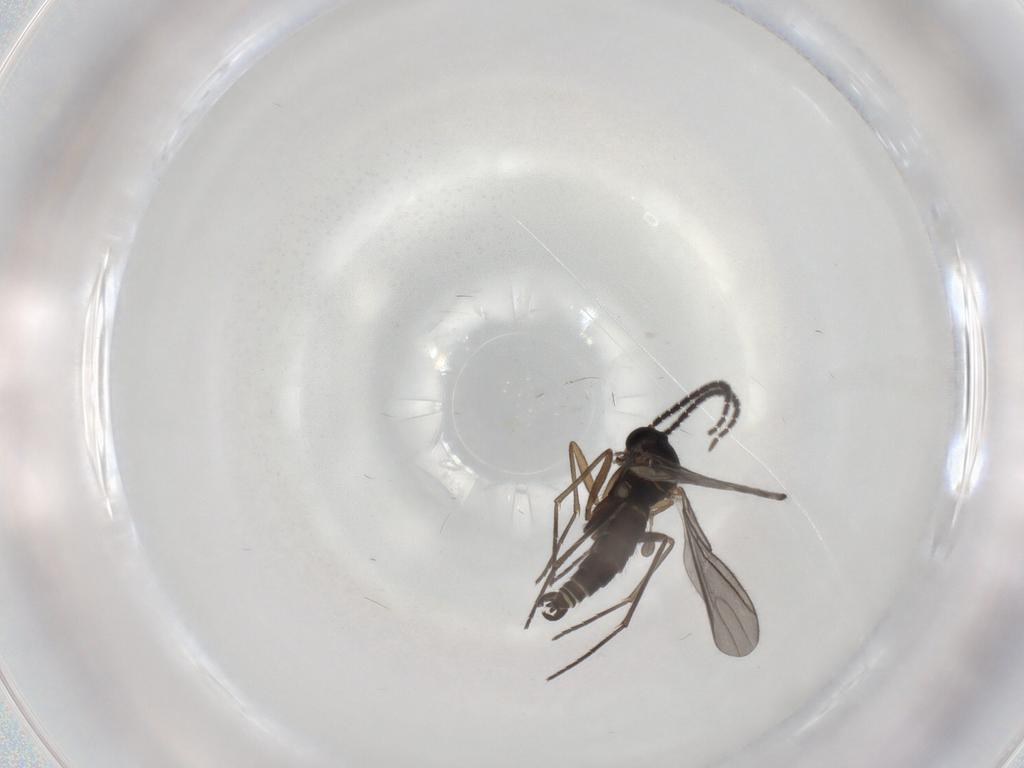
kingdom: Animalia
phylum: Arthropoda
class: Insecta
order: Diptera
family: Sciaridae
